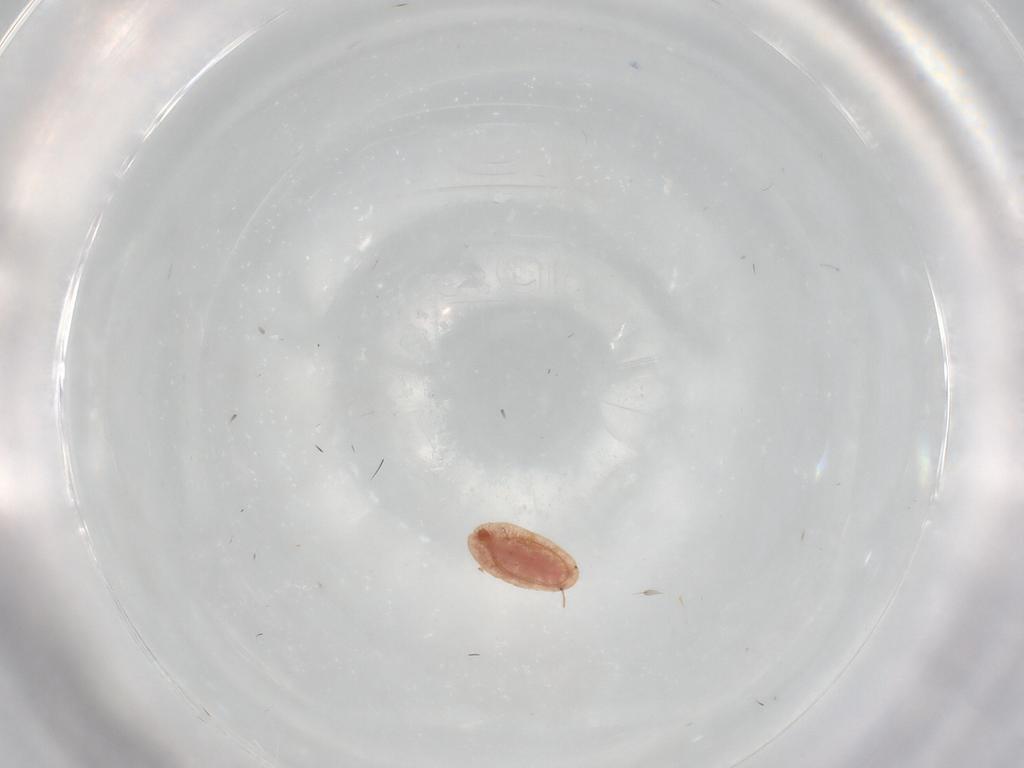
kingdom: Animalia
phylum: Arthropoda
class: Insecta
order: Hemiptera
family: Coccoidea_incertae_sedis
